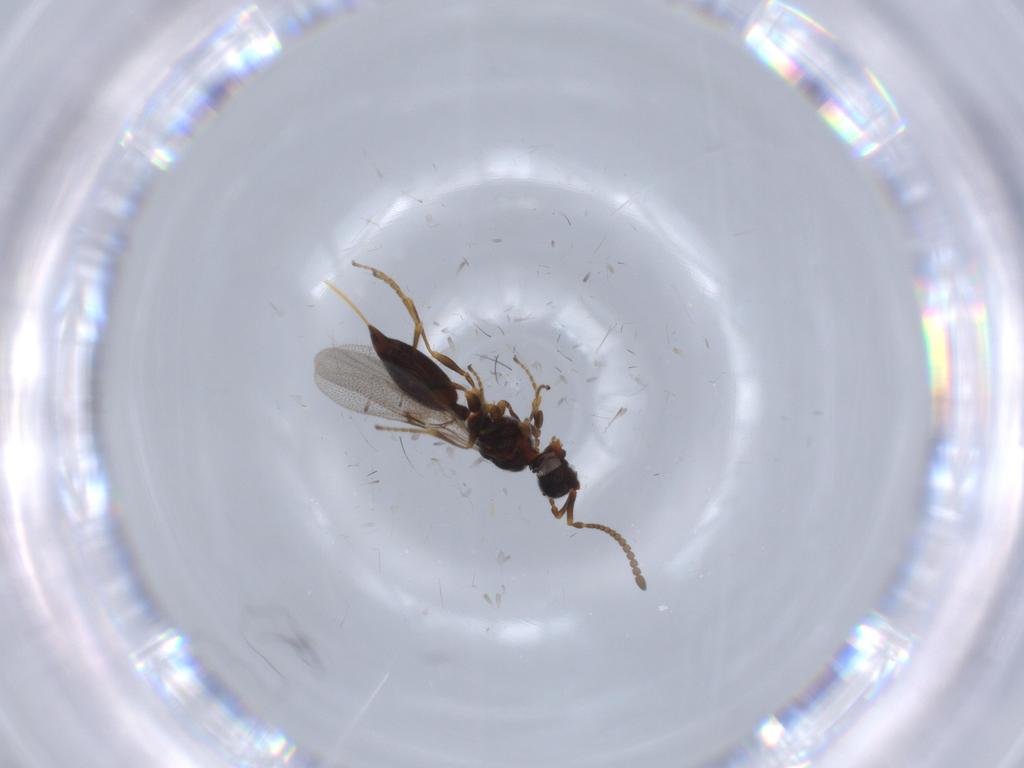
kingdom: Animalia
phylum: Arthropoda
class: Insecta
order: Hymenoptera
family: Diapriidae
